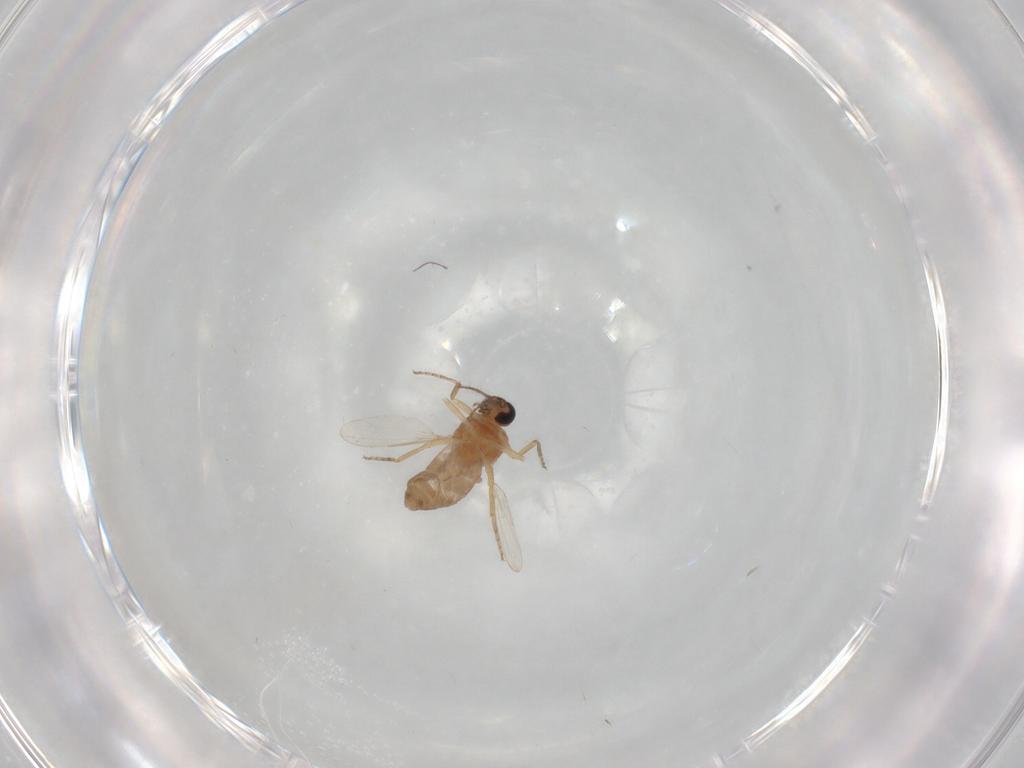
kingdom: Animalia
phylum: Arthropoda
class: Insecta
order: Diptera
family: Ceratopogonidae
